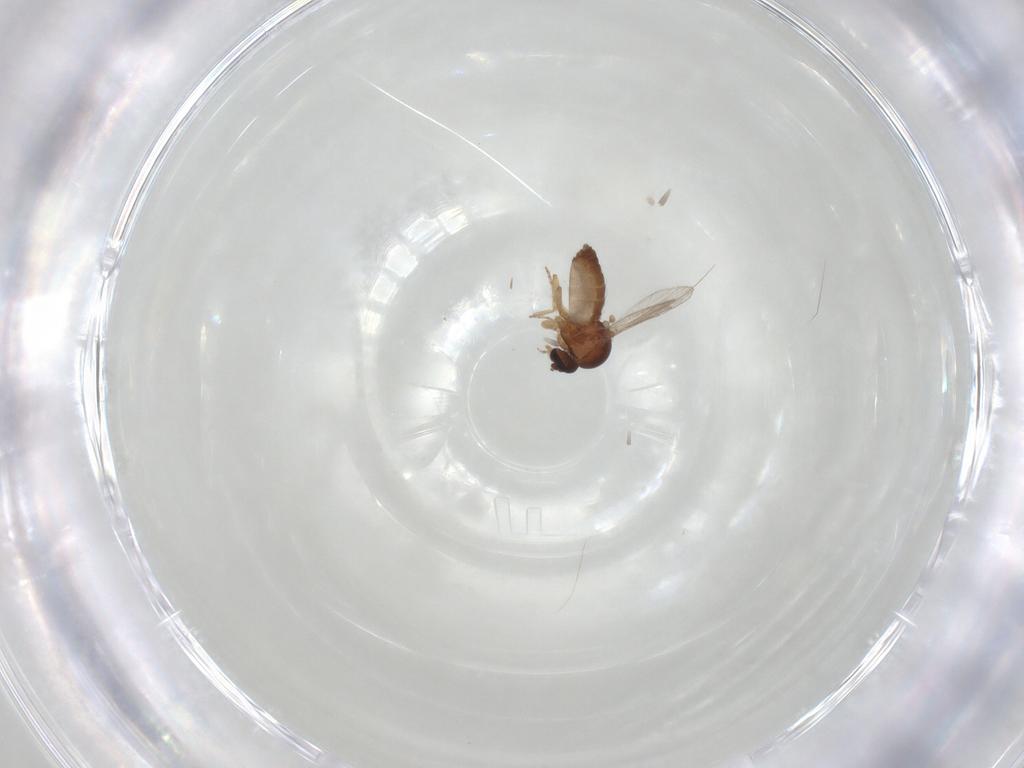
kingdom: Animalia
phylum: Arthropoda
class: Insecta
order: Diptera
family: Ceratopogonidae
